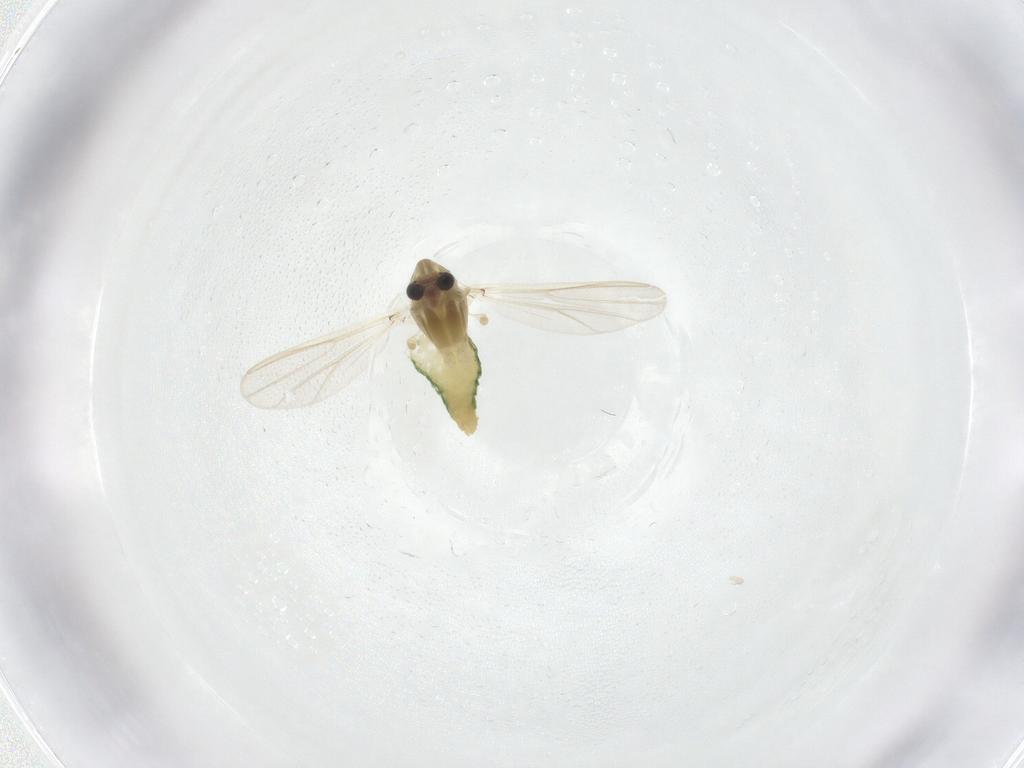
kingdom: Animalia
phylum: Arthropoda
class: Insecta
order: Diptera
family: Chironomidae
